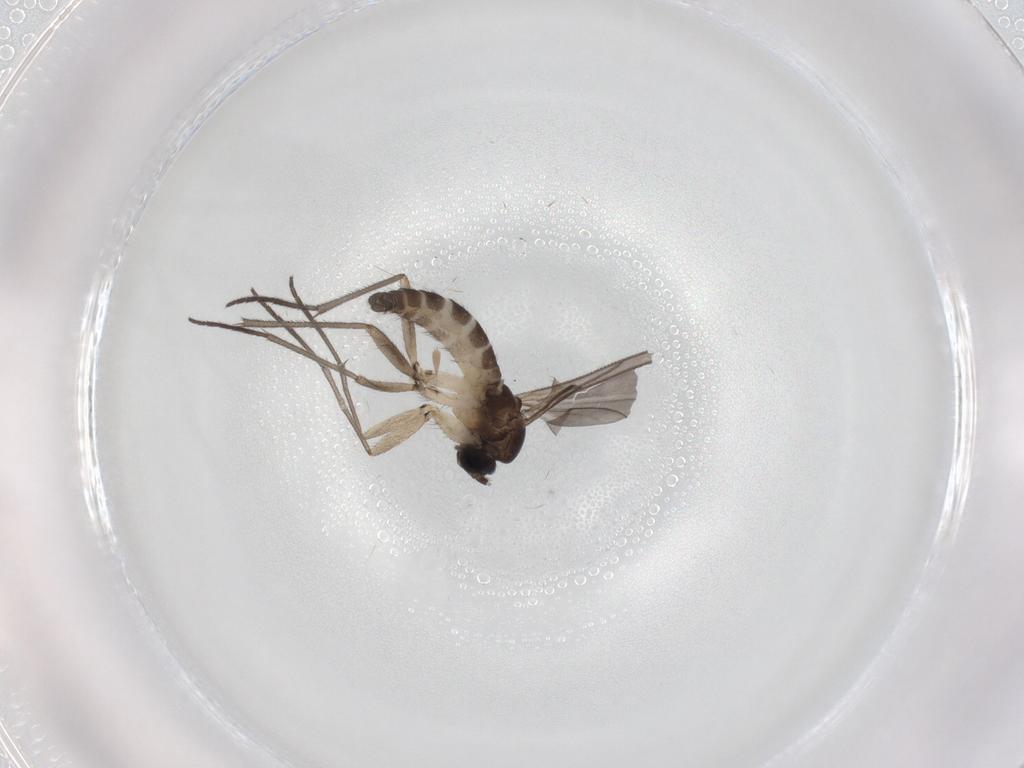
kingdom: Animalia
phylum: Arthropoda
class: Insecta
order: Diptera
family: Sciaridae
